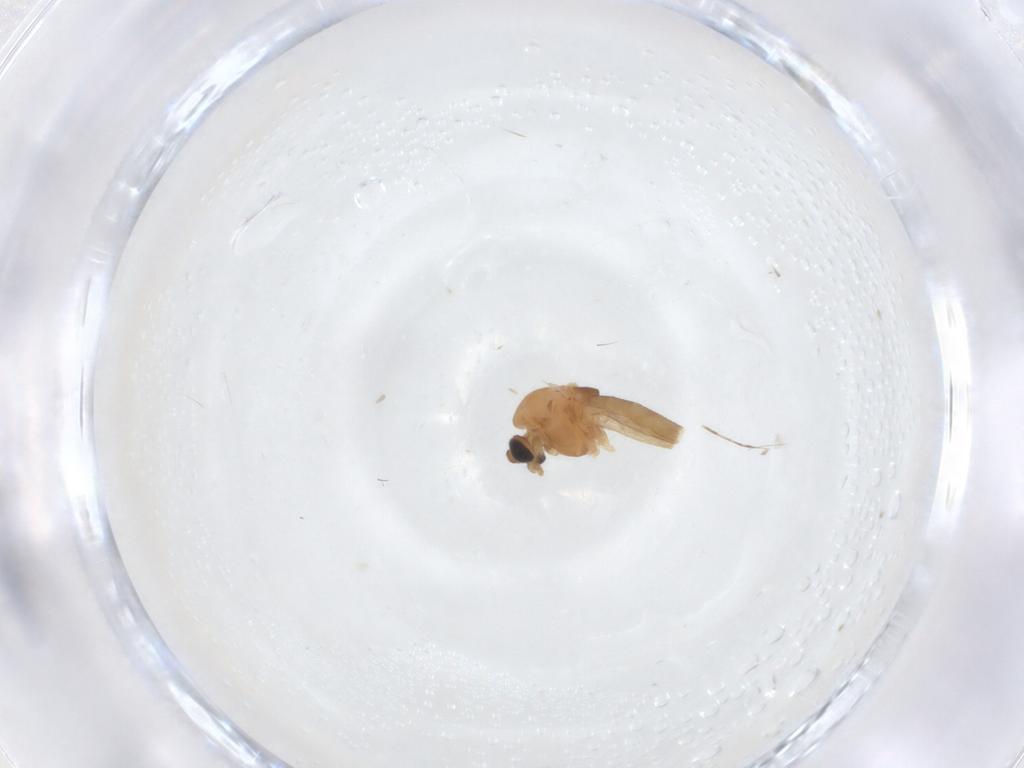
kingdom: Animalia
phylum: Arthropoda
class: Insecta
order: Diptera
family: Chironomidae
